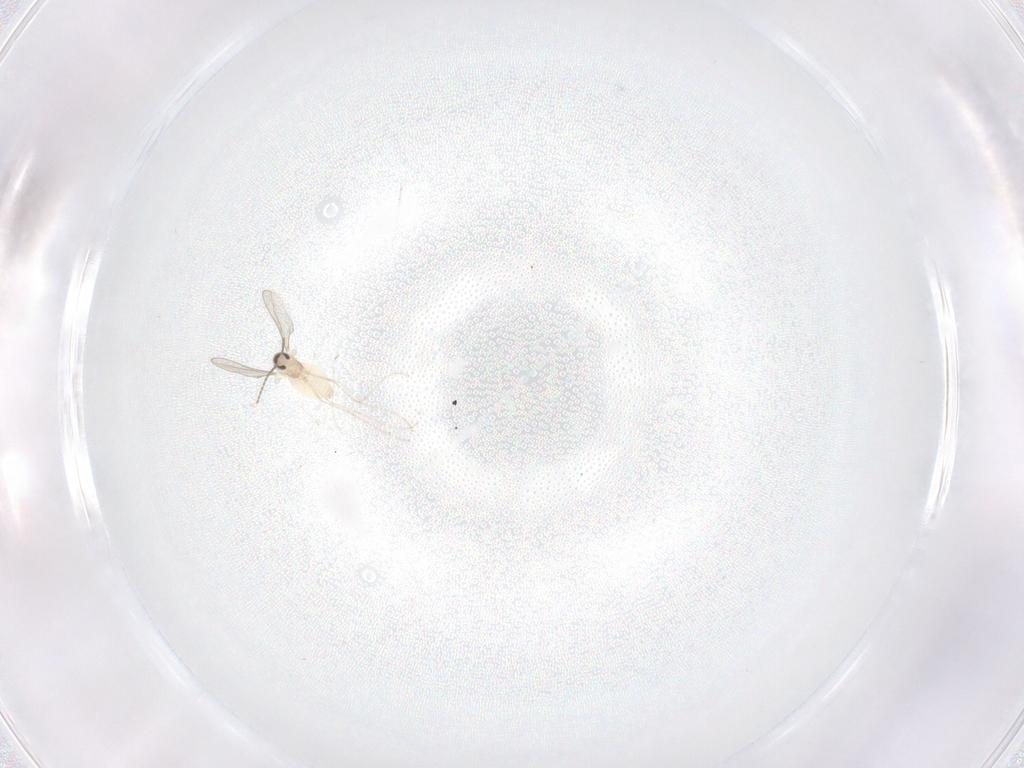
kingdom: Animalia
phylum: Arthropoda
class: Insecta
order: Diptera
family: Cecidomyiidae
